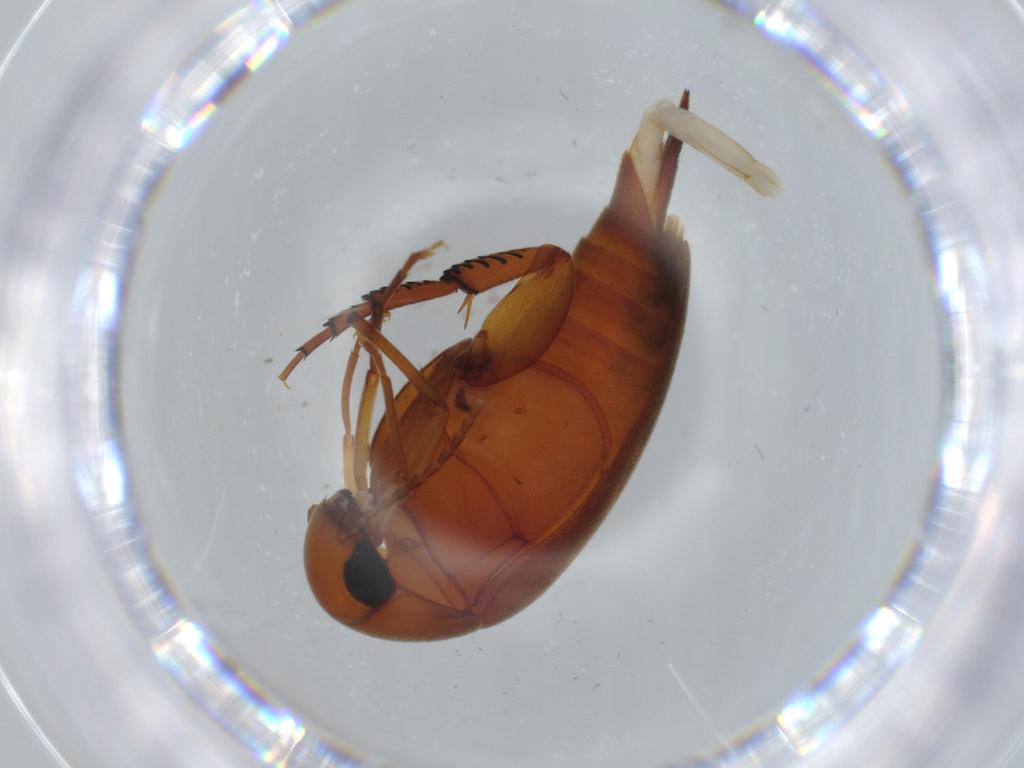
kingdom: Animalia
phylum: Arthropoda
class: Insecta
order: Coleoptera
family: Mordellidae
